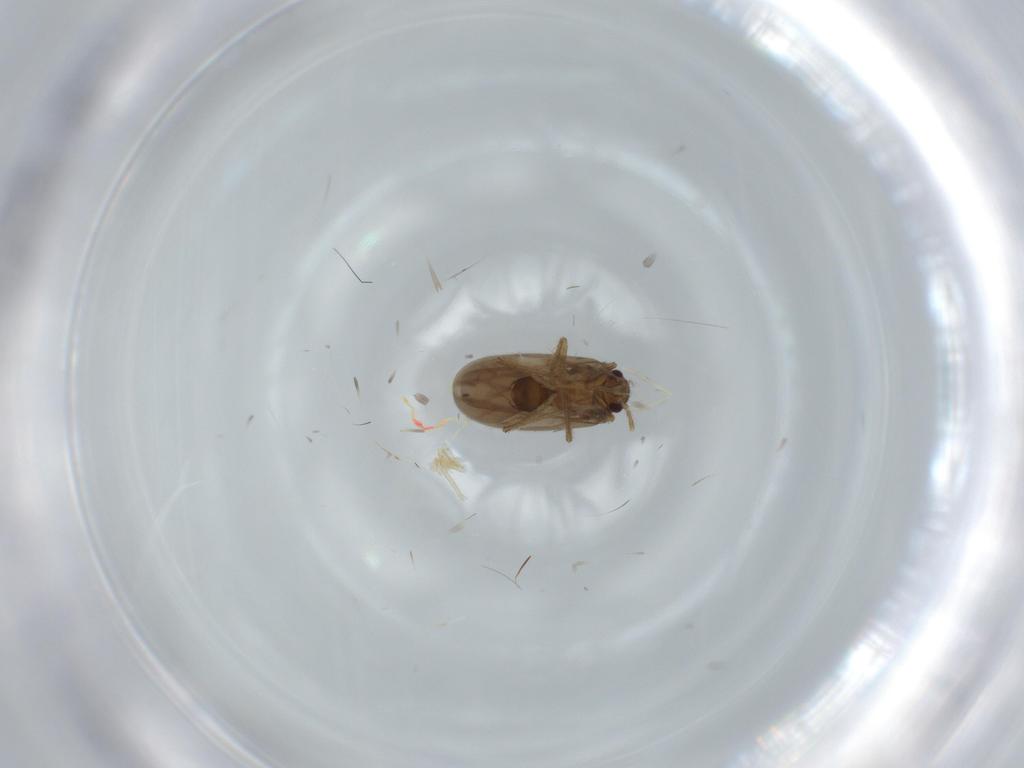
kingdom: Animalia
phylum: Arthropoda
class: Insecta
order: Hemiptera
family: Ceratocombidae
